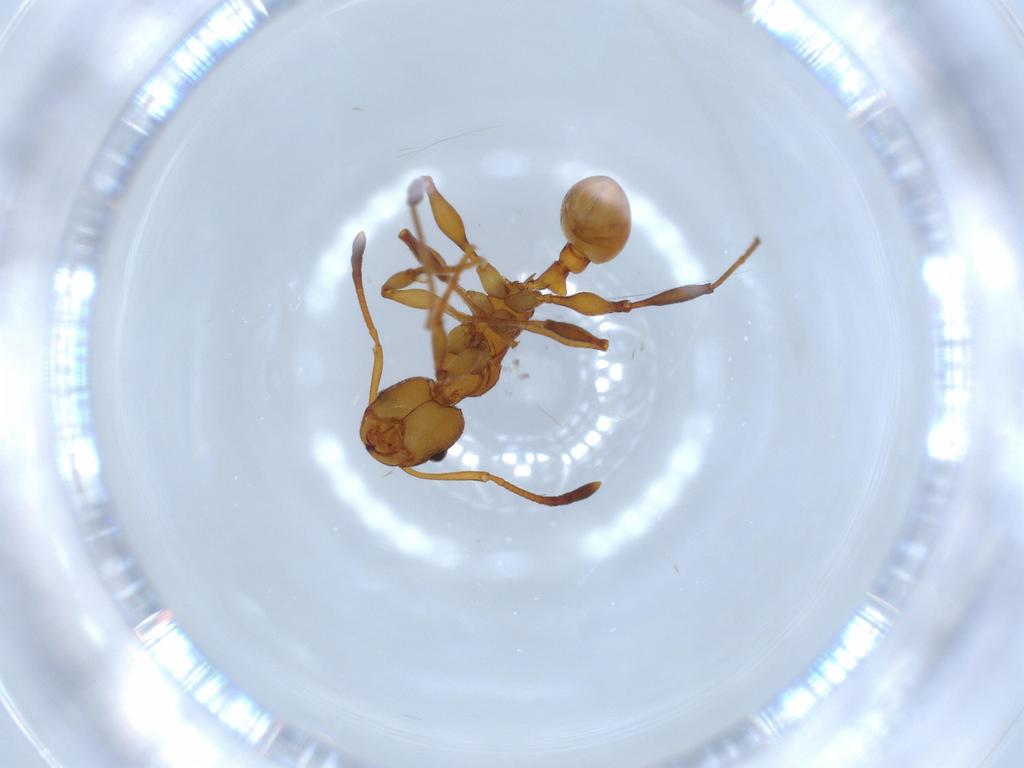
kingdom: Animalia
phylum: Arthropoda
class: Insecta
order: Hymenoptera
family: Formicidae
